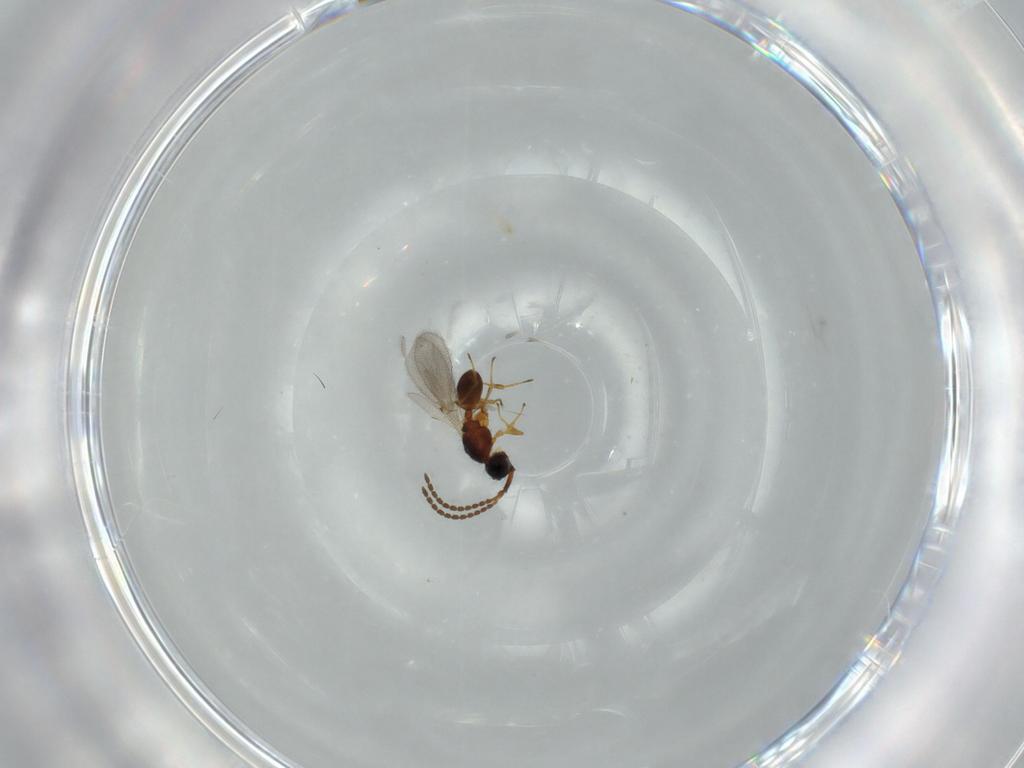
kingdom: Animalia
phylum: Arthropoda
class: Insecta
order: Hymenoptera
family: Diapriidae
